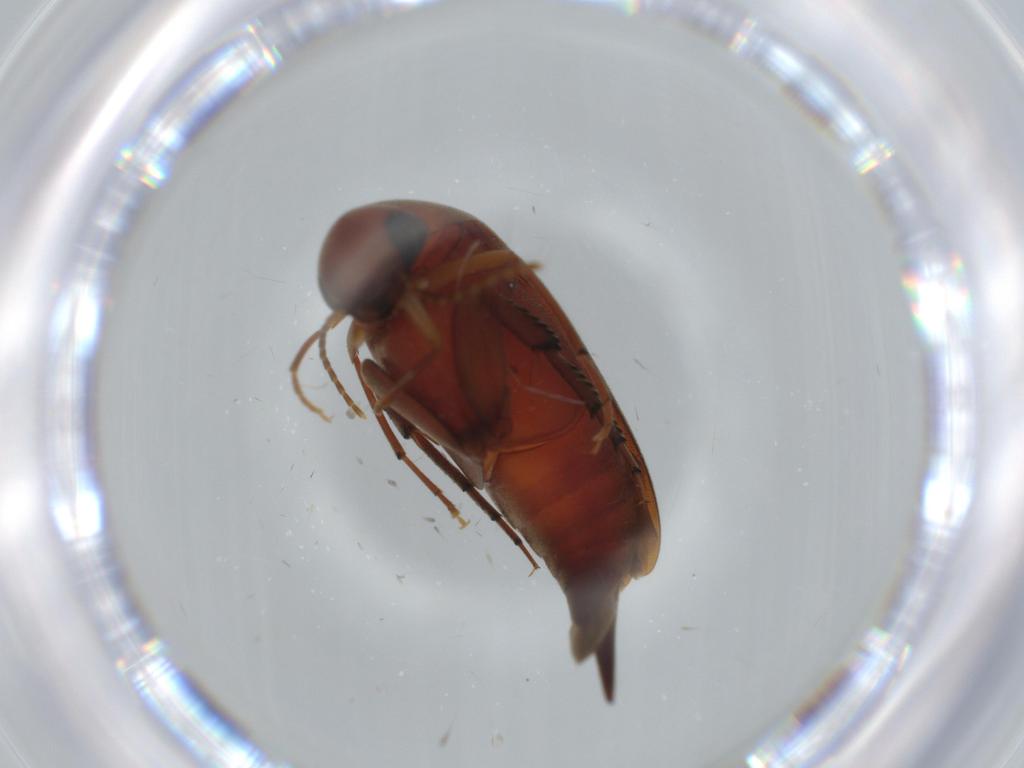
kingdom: Animalia
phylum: Arthropoda
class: Insecta
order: Coleoptera
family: Mordellidae
